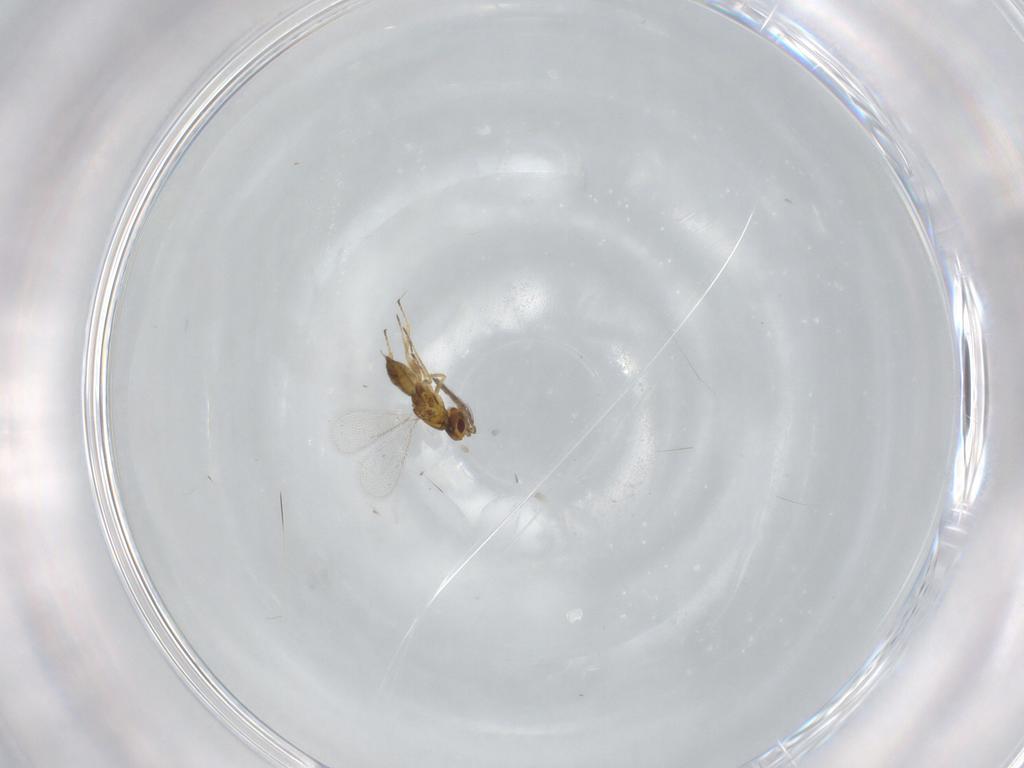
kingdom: Animalia
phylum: Arthropoda
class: Insecta
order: Hymenoptera
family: Eulophidae
